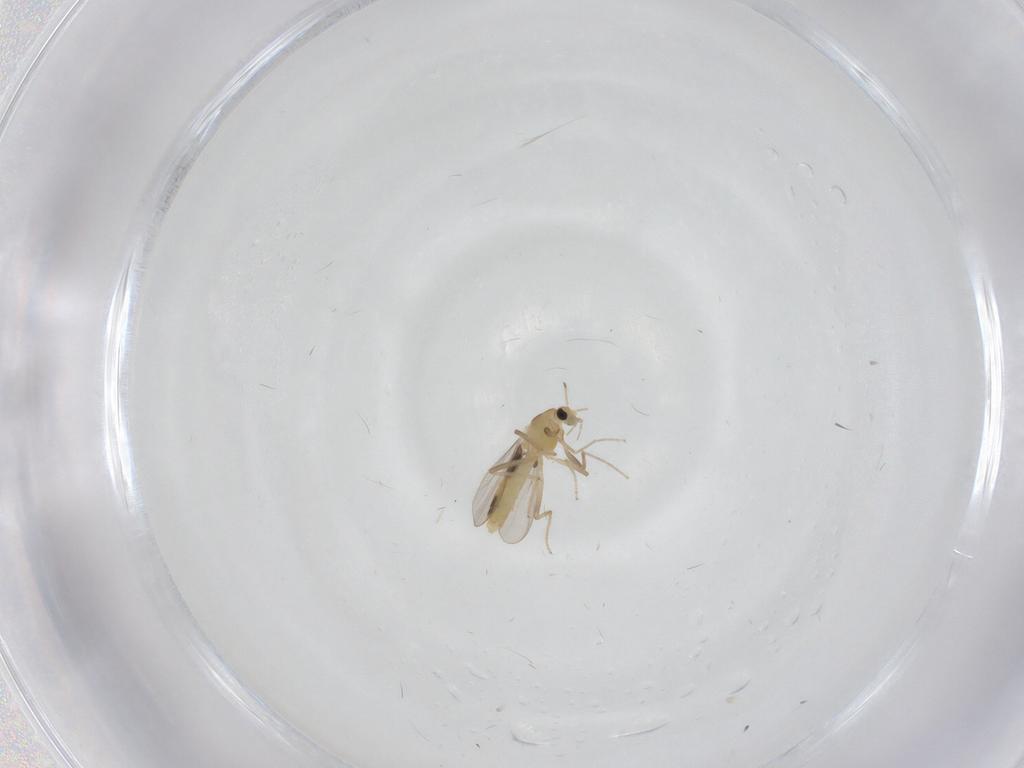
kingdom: Animalia
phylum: Arthropoda
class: Insecta
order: Diptera
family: Chironomidae
